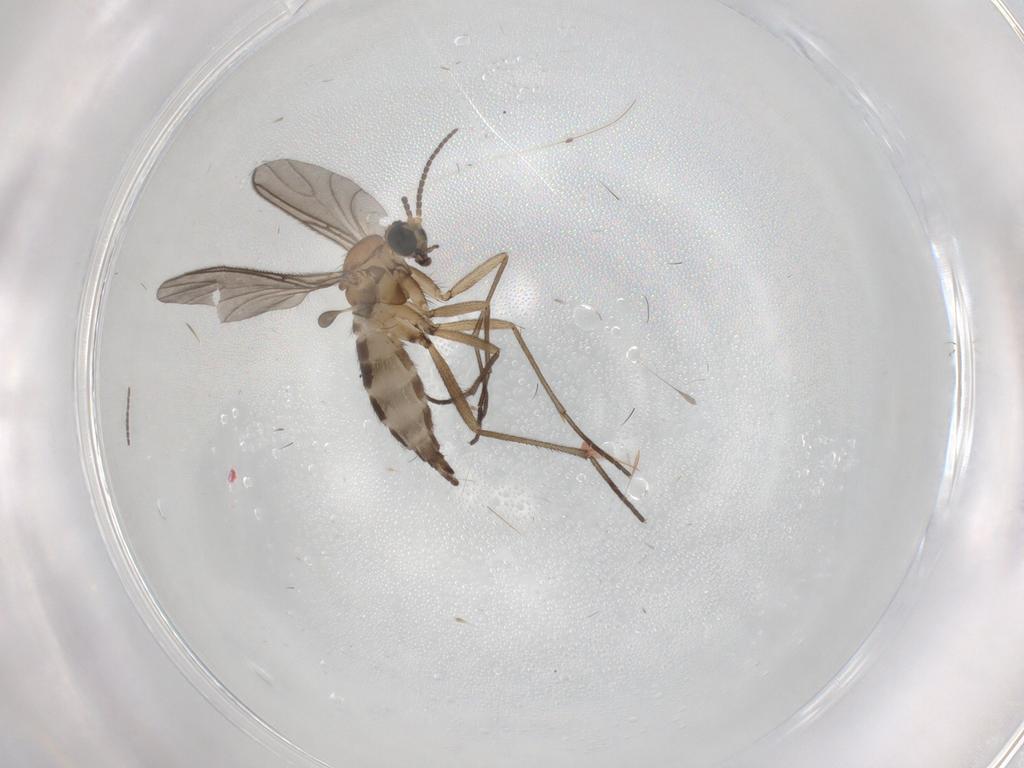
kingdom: Animalia
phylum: Arthropoda
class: Insecta
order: Diptera
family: Sciaridae
